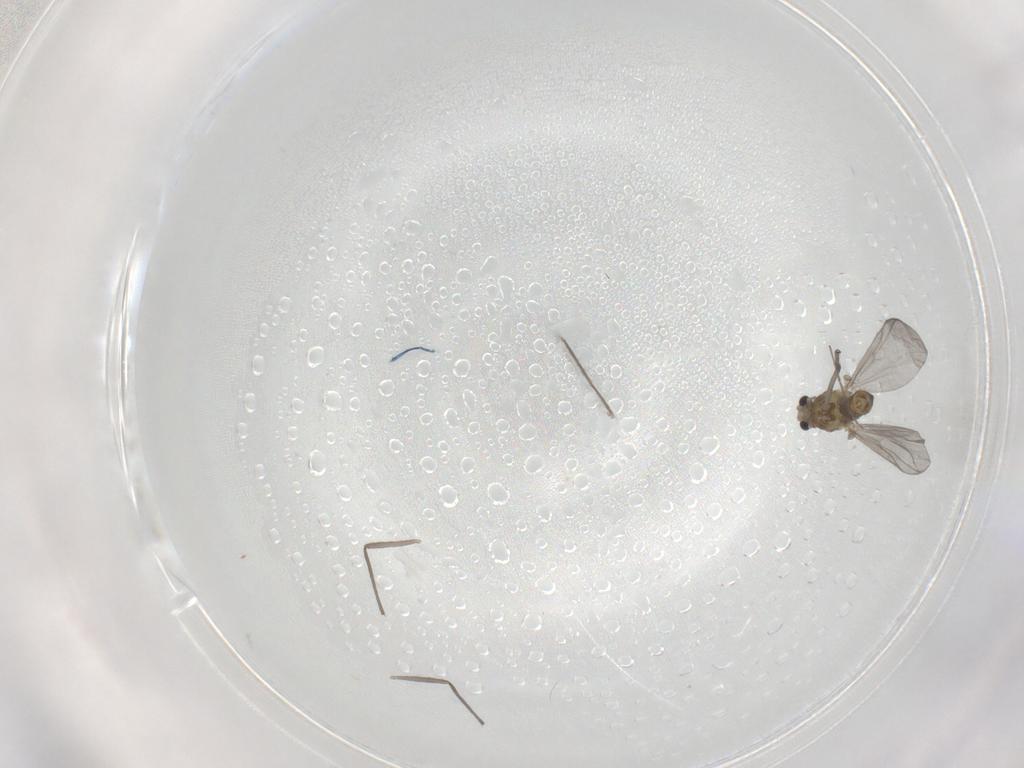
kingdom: Animalia
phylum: Arthropoda
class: Insecta
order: Diptera
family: Chironomidae
